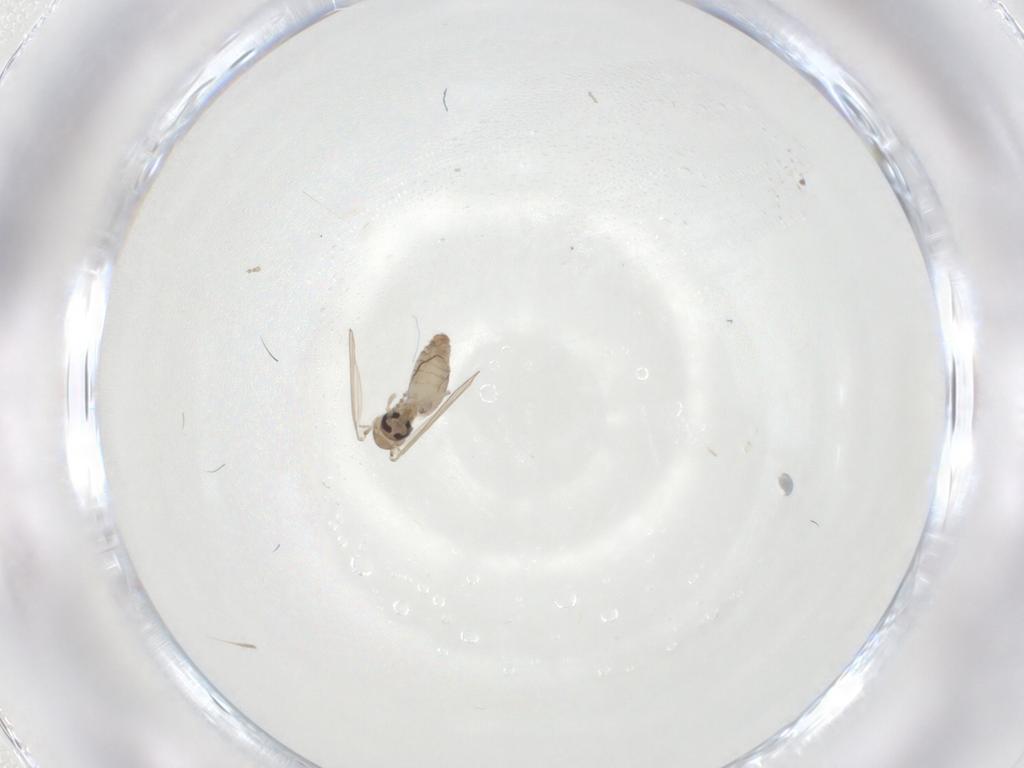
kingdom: Animalia
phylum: Arthropoda
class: Insecta
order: Diptera
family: Psychodidae
